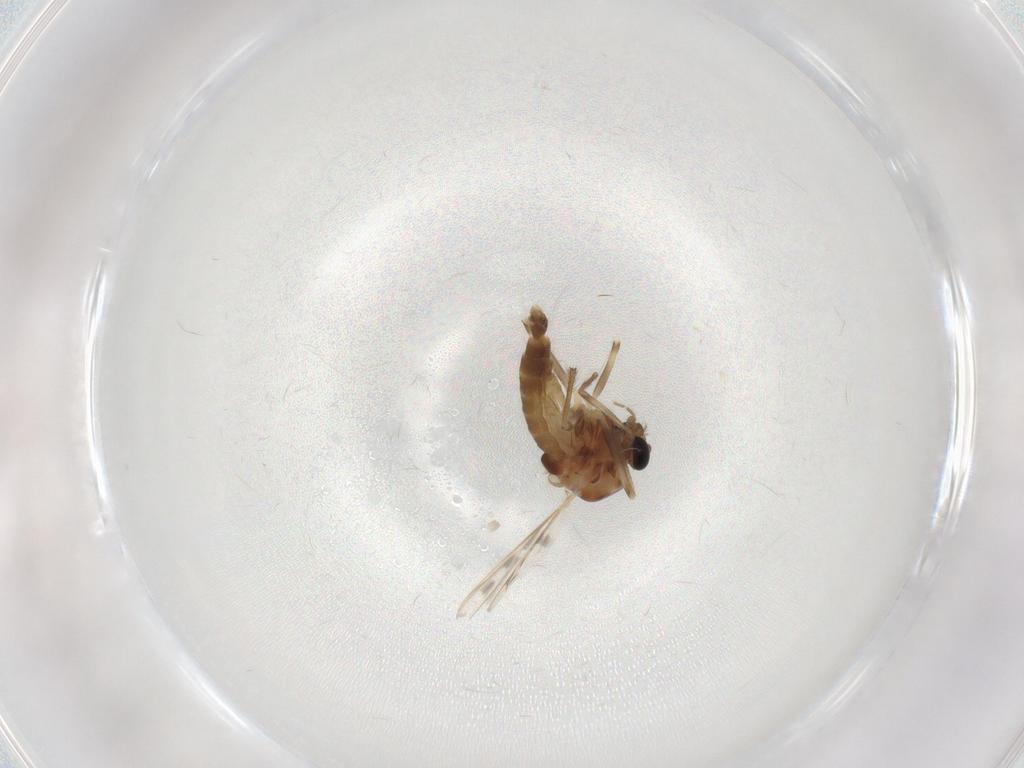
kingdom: Animalia
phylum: Arthropoda
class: Insecta
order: Diptera
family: Chironomidae
